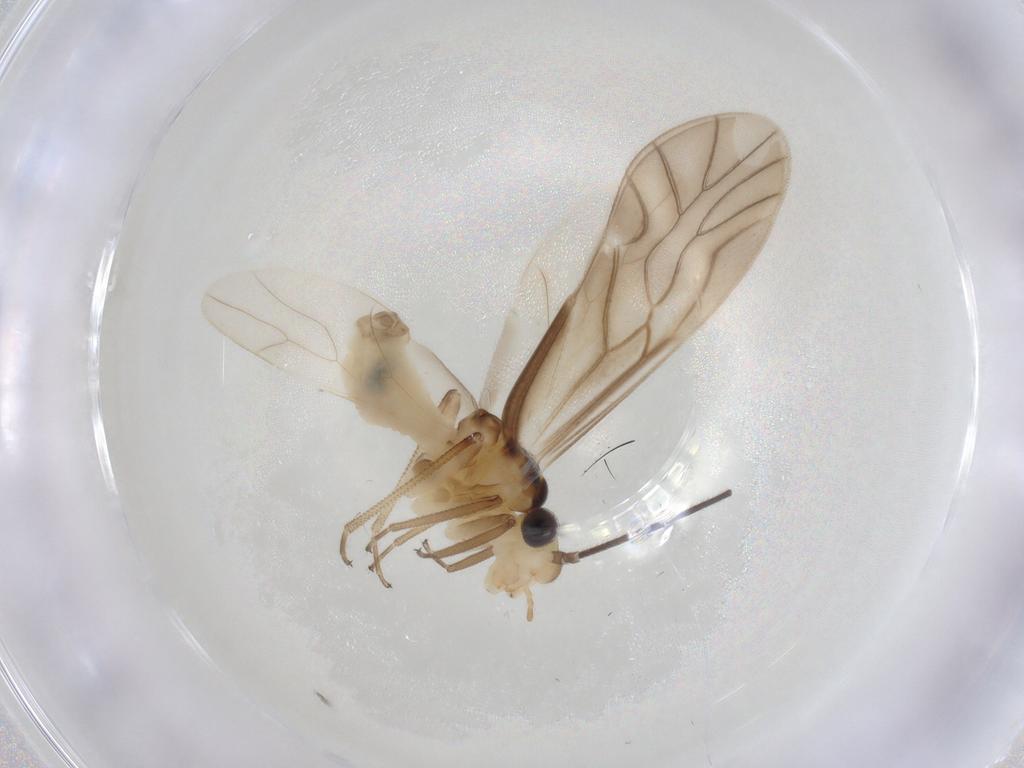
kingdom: Animalia
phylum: Arthropoda
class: Insecta
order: Psocodea
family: Caeciliusidae
